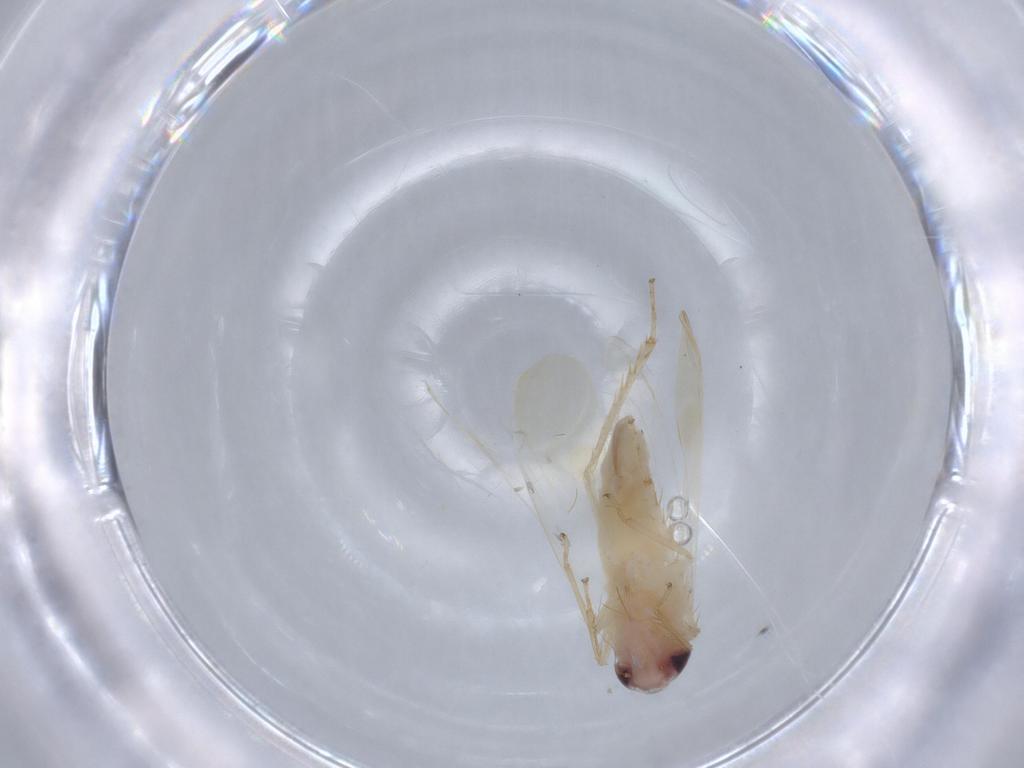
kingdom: Animalia
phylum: Arthropoda
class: Insecta
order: Hemiptera
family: Cicadellidae
